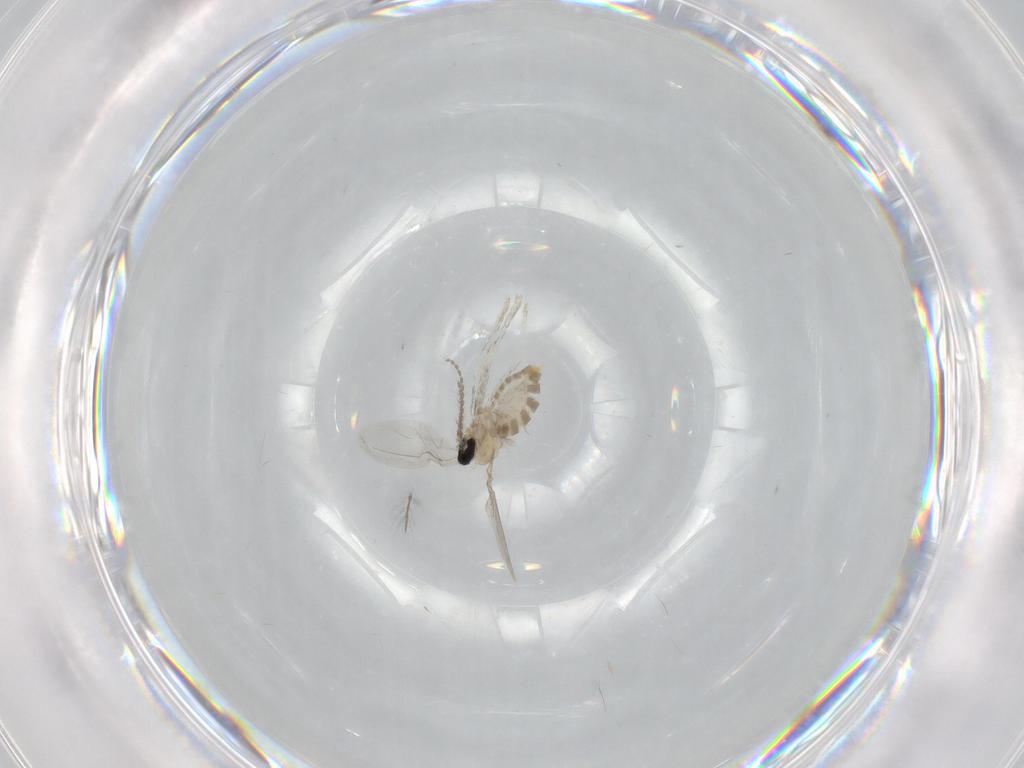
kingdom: Animalia
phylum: Arthropoda
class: Insecta
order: Diptera
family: Cecidomyiidae
